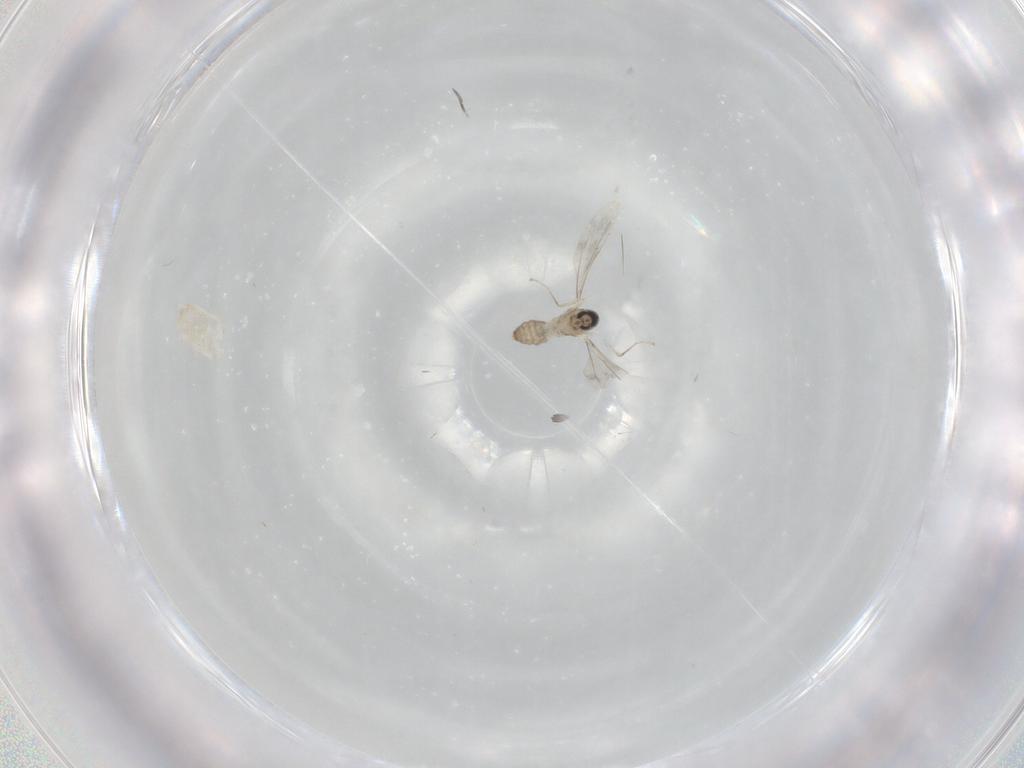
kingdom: Animalia
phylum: Arthropoda
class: Insecta
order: Diptera
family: Cecidomyiidae
